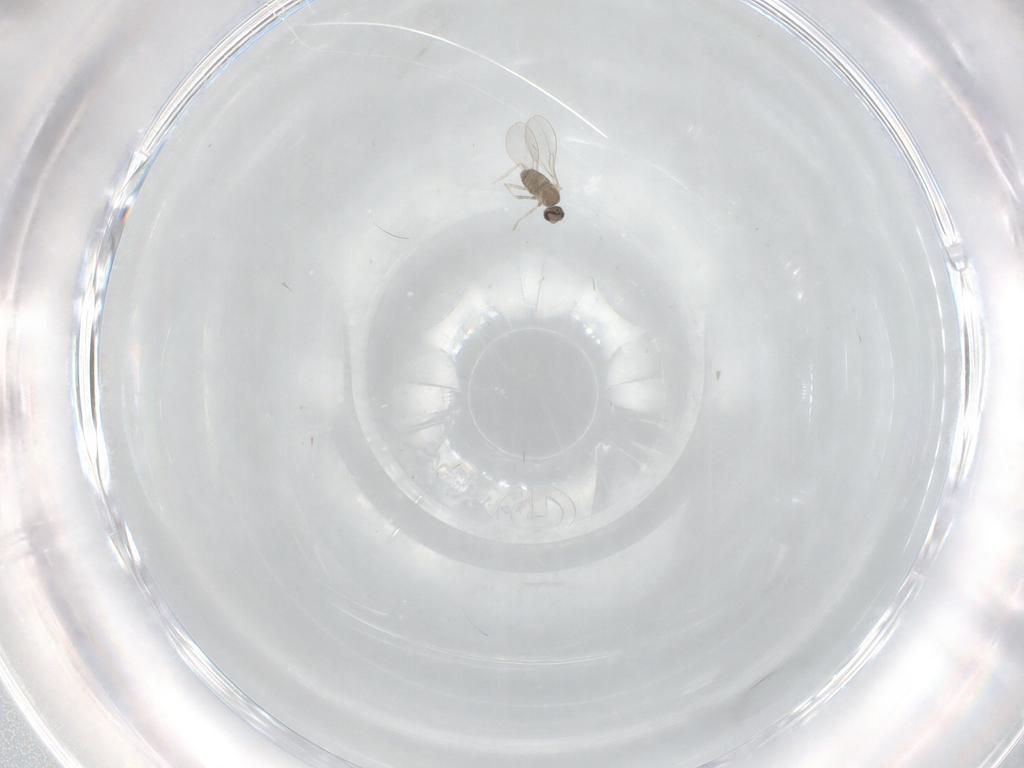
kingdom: Animalia
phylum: Arthropoda
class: Insecta
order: Diptera
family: Cecidomyiidae
